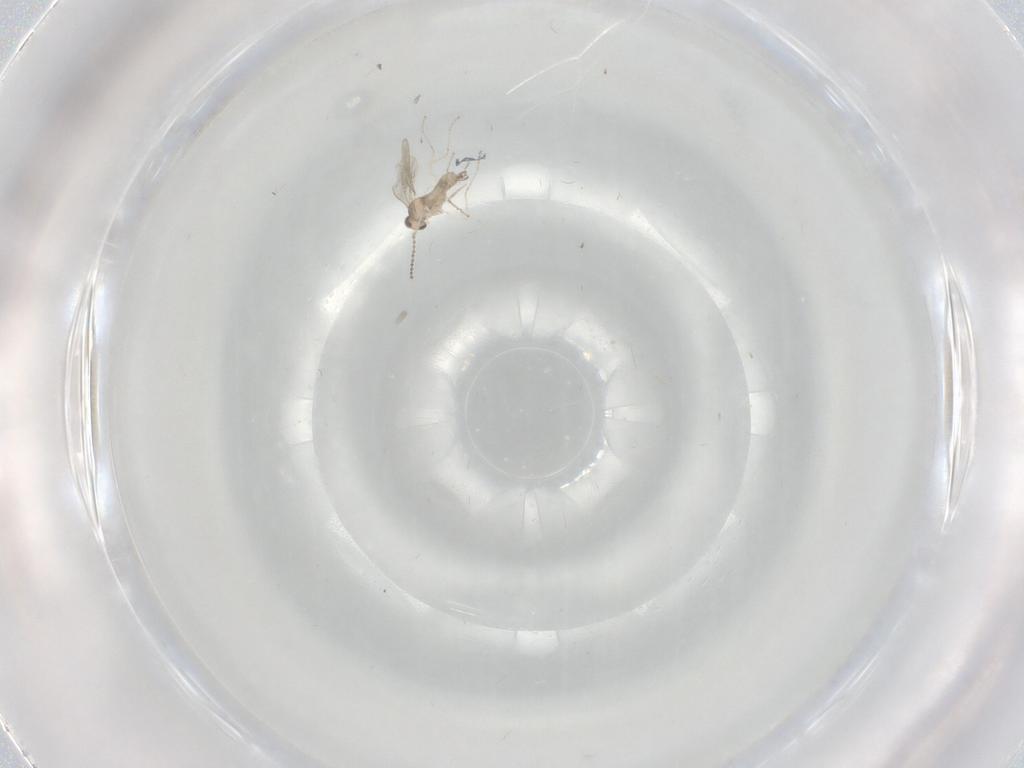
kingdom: Animalia
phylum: Arthropoda
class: Insecta
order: Diptera
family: Cecidomyiidae
